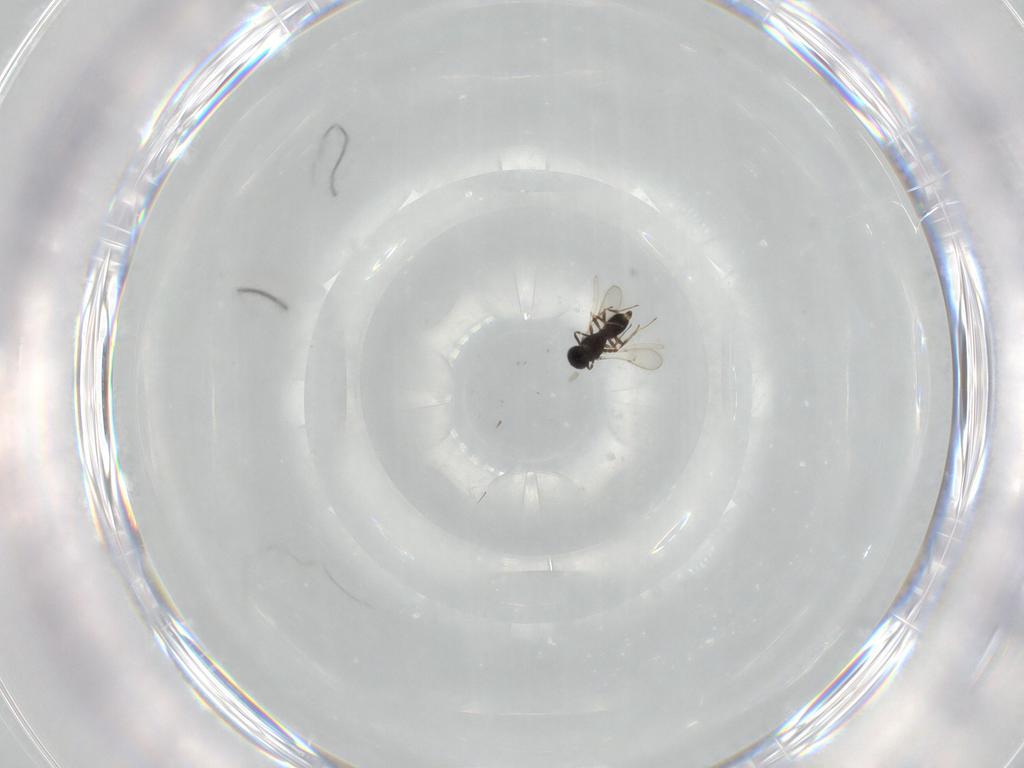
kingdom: Animalia
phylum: Arthropoda
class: Insecta
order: Hymenoptera
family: Scelionidae
